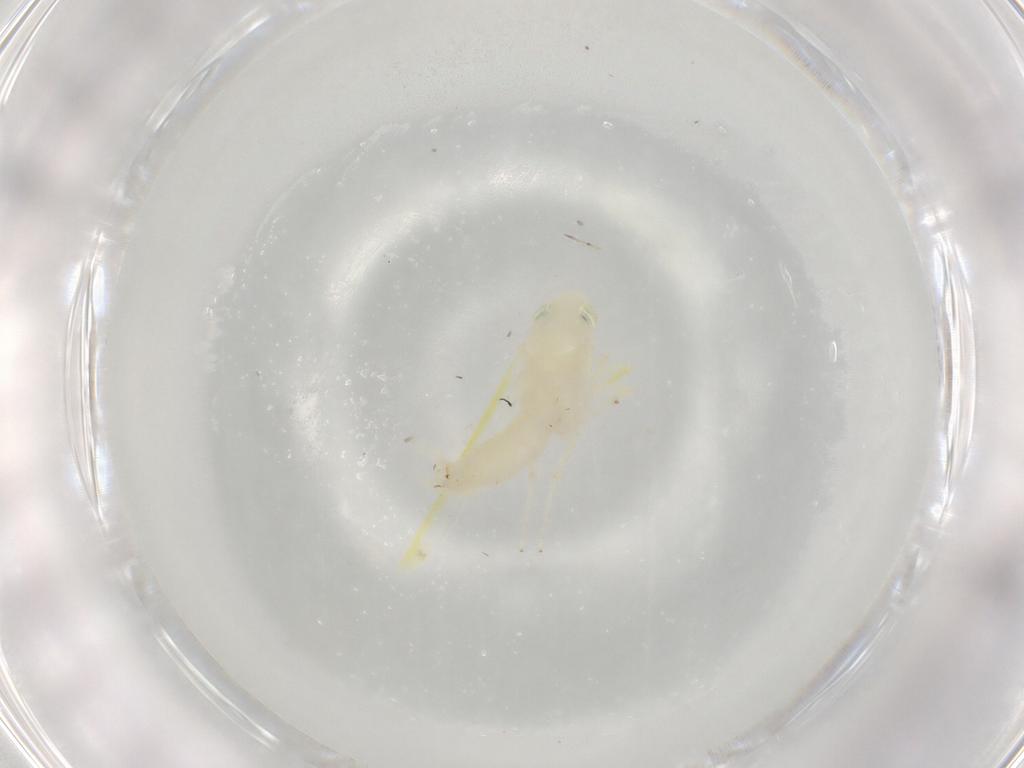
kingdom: Animalia
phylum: Arthropoda
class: Insecta
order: Hemiptera
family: Cicadellidae
